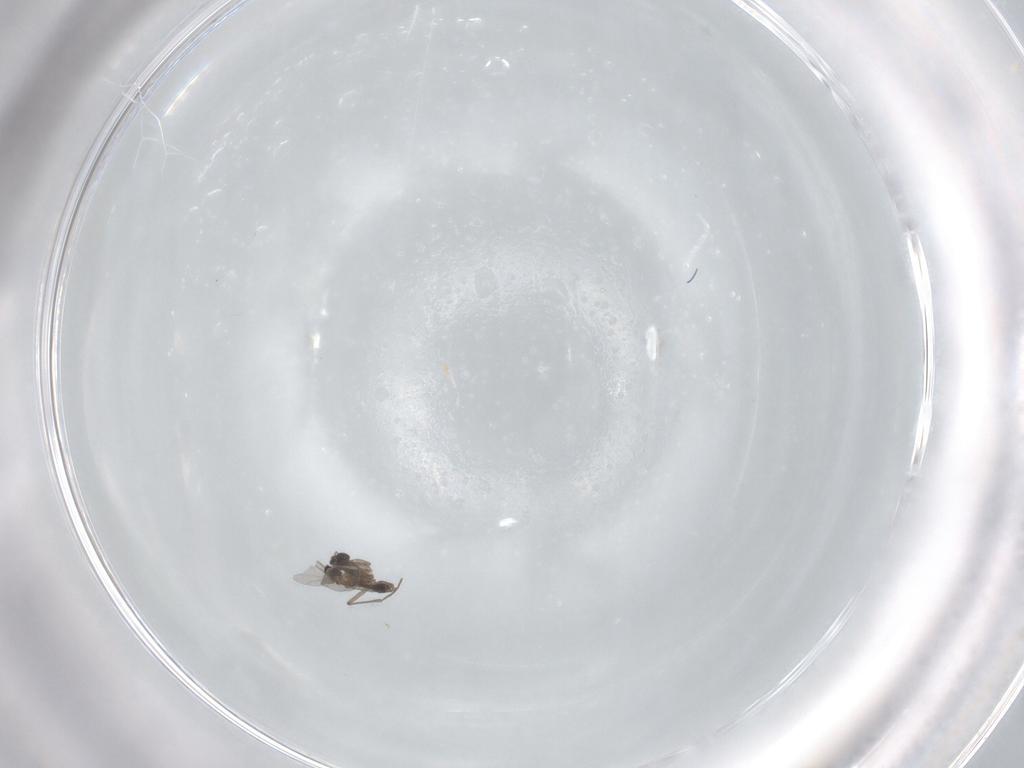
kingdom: Animalia
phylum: Arthropoda
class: Insecta
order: Diptera
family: Sciaridae
